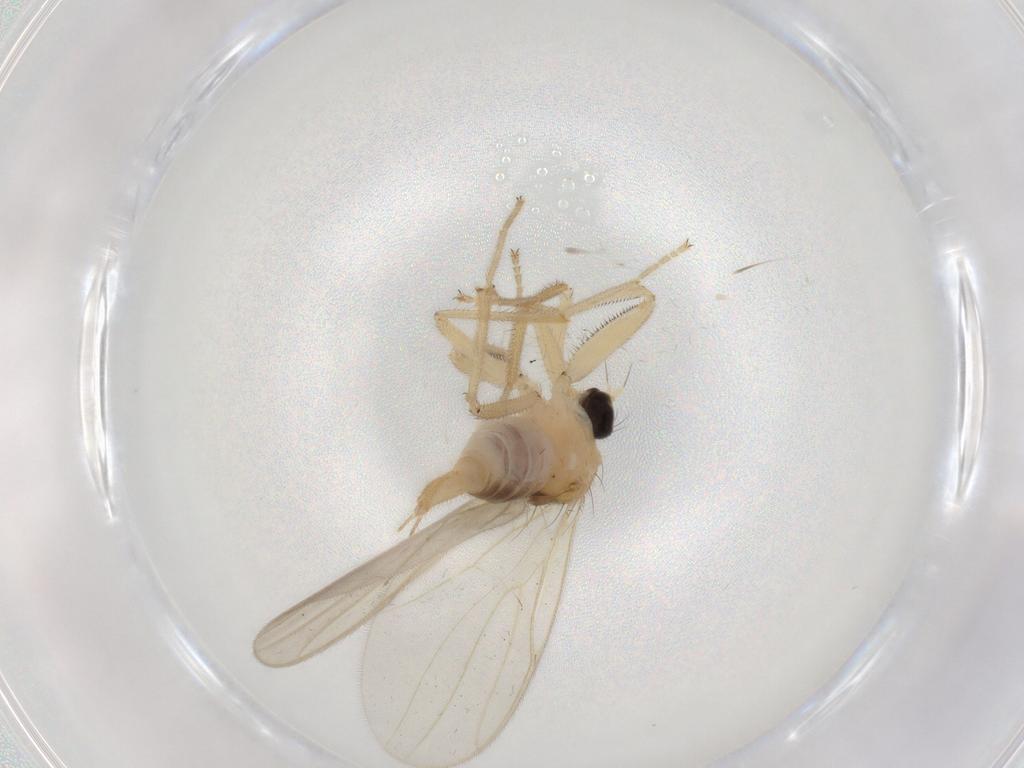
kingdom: Animalia
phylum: Arthropoda
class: Insecta
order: Diptera
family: Hybotidae
